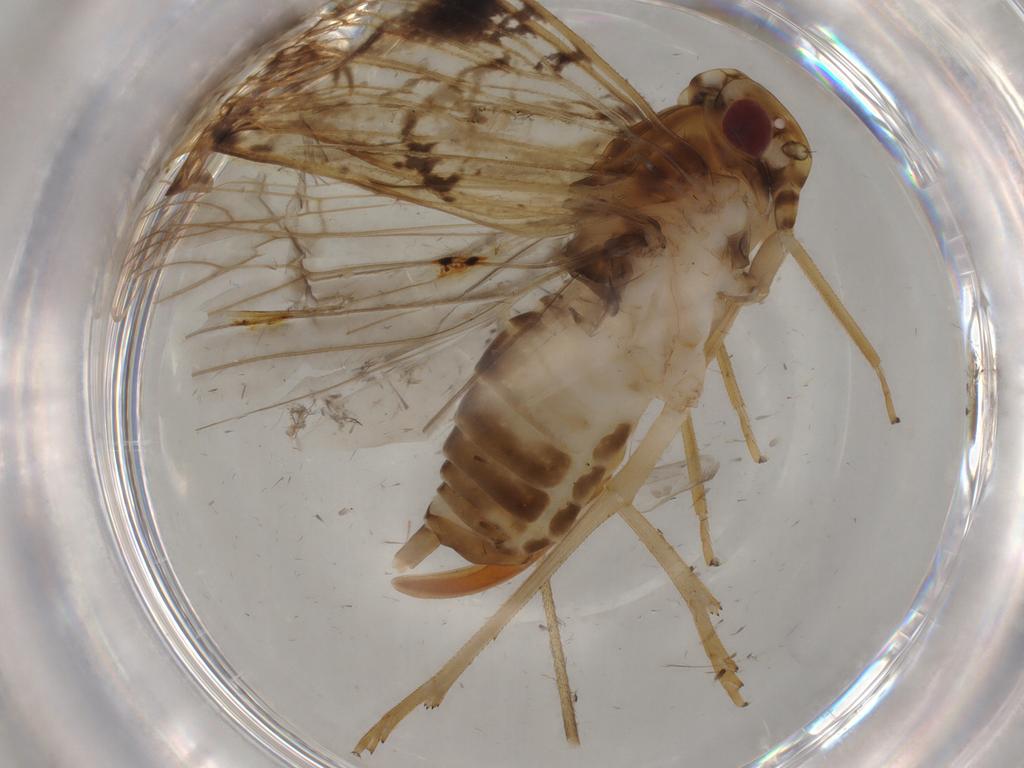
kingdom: Animalia
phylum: Arthropoda
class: Insecta
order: Hemiptera
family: Cixiidae
